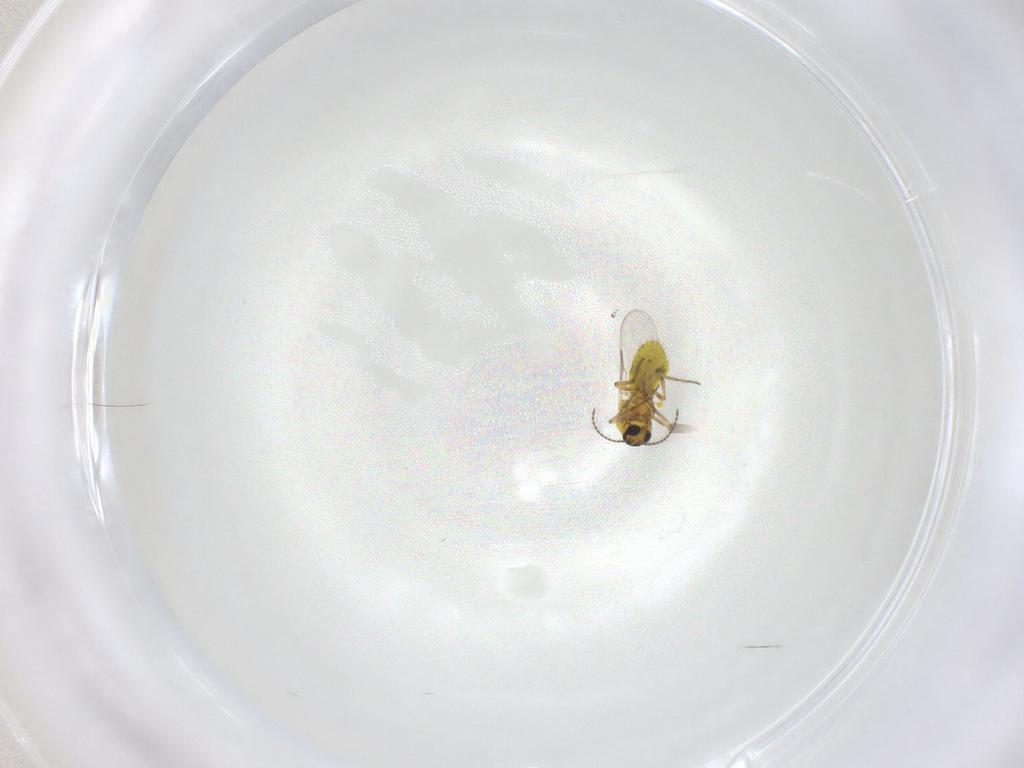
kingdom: Animalia
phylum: Arthropoda
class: Insecta
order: Diptera
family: Ceratopogonidae
